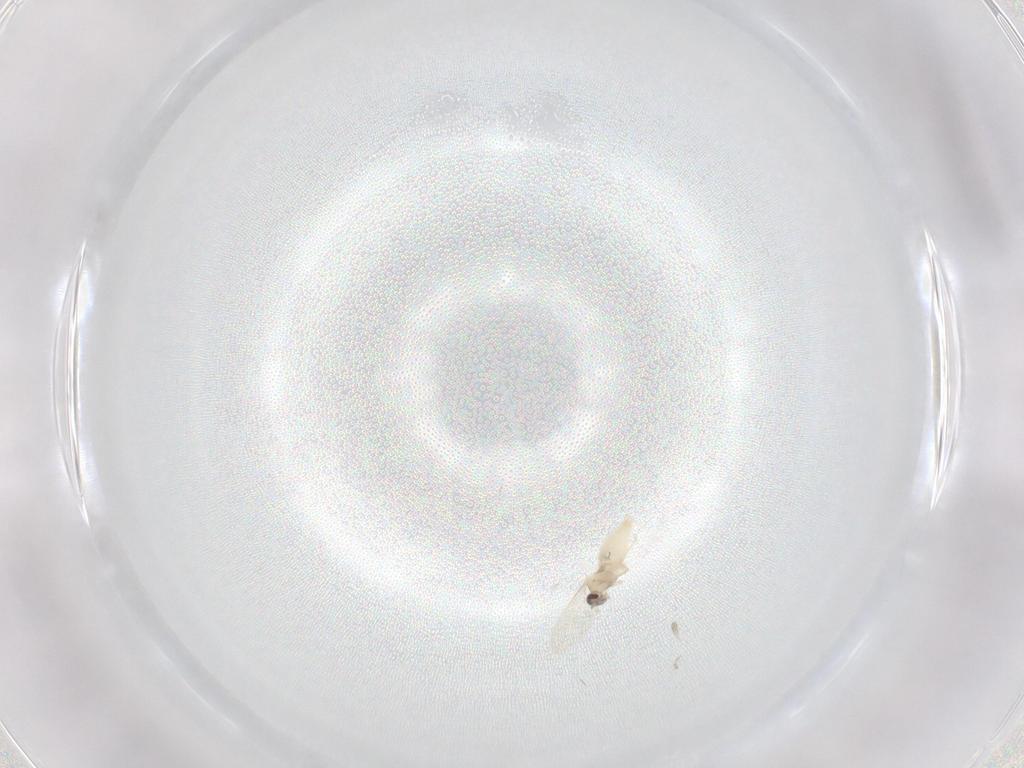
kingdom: Animalia
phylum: Arthropoda
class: Insecta
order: Diptera
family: Cecidomyiidae
